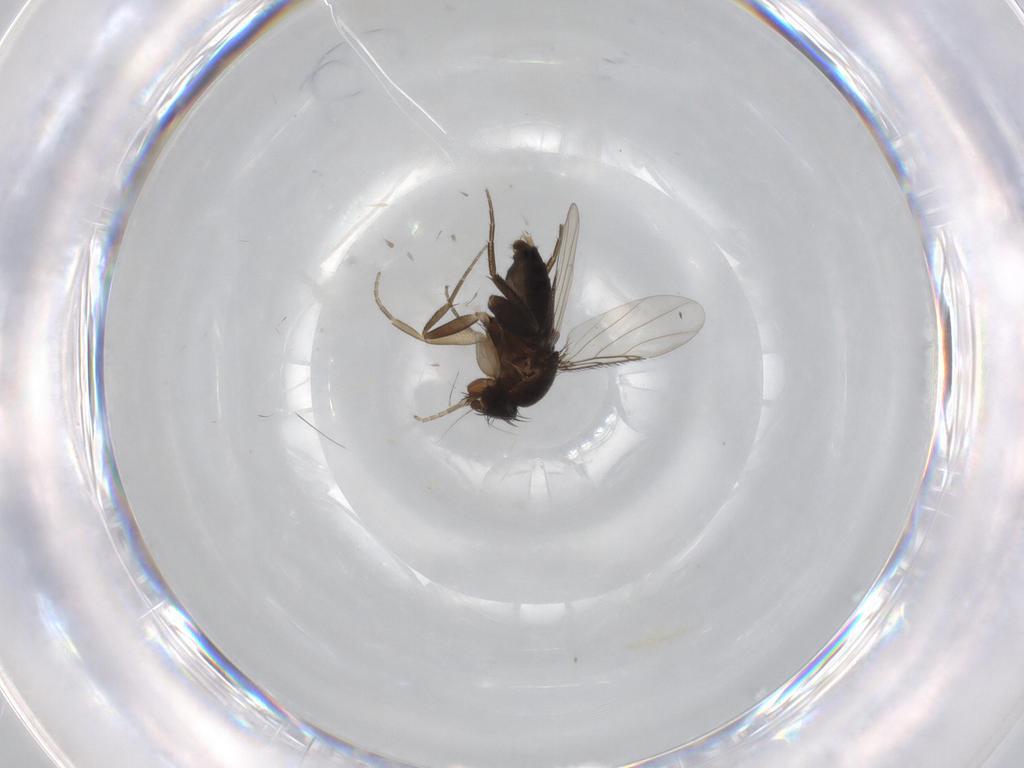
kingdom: Animalia
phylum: Arthropoda
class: Insecta
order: Diptera
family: Phoridae
